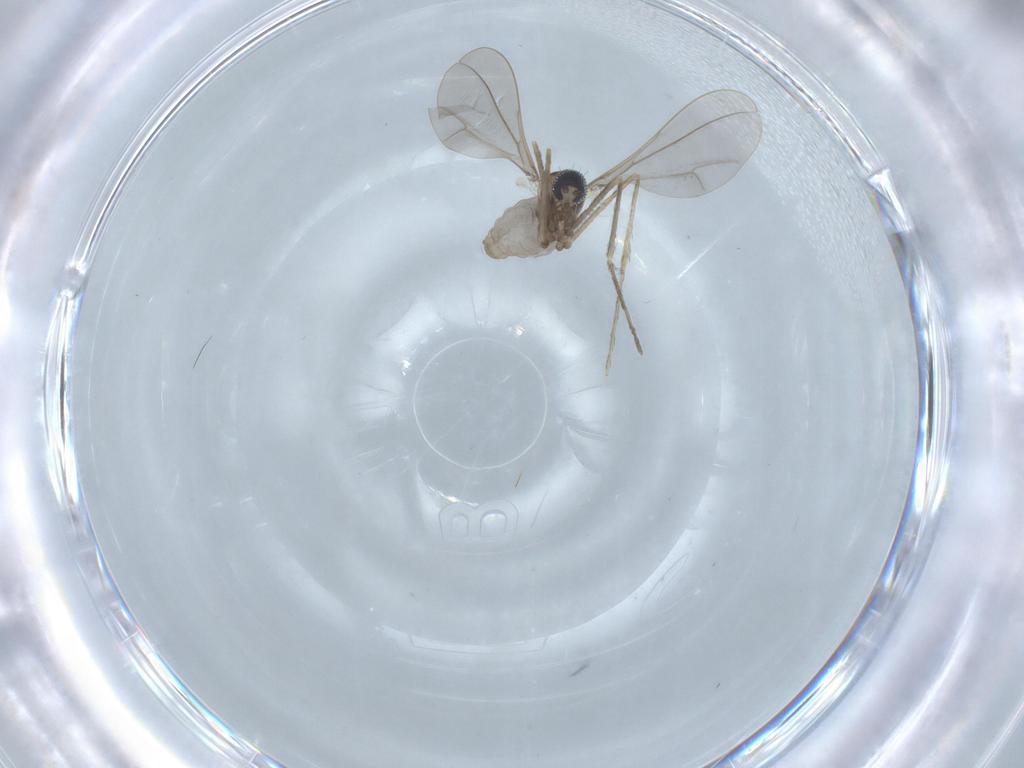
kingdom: Animalia
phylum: Arthropoda
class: Insecta
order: Diptera
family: Cecidomyiidae
